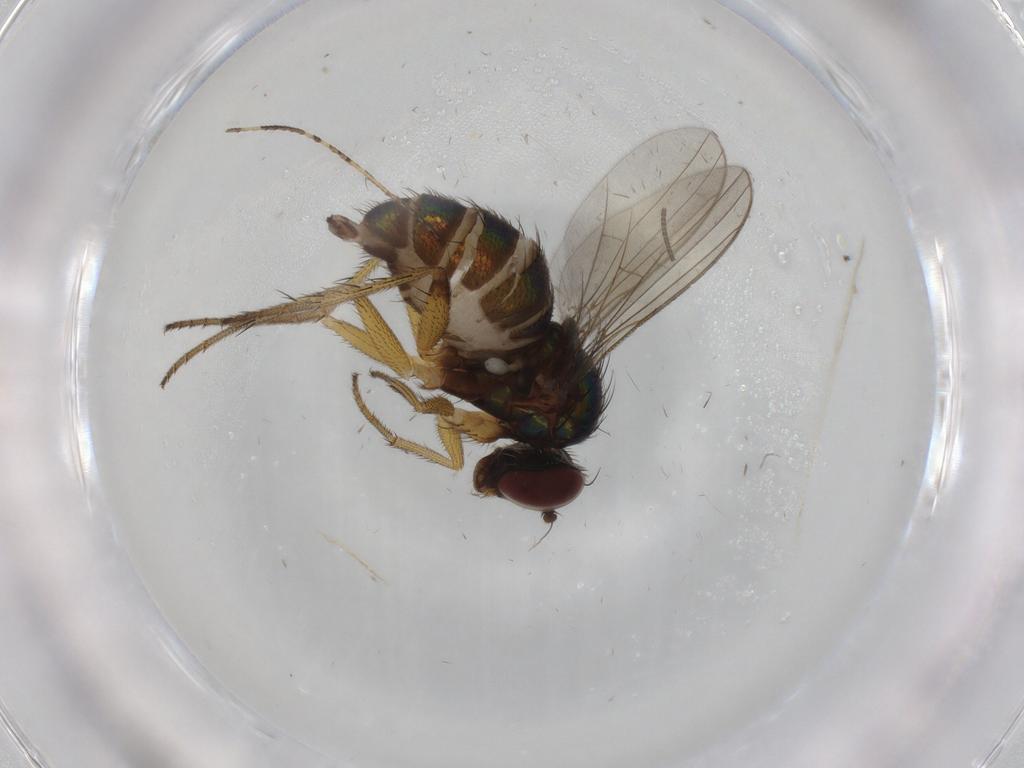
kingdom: Animalia
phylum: Arthropoda
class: Insecta
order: Diptera
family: Dolichopodidae
